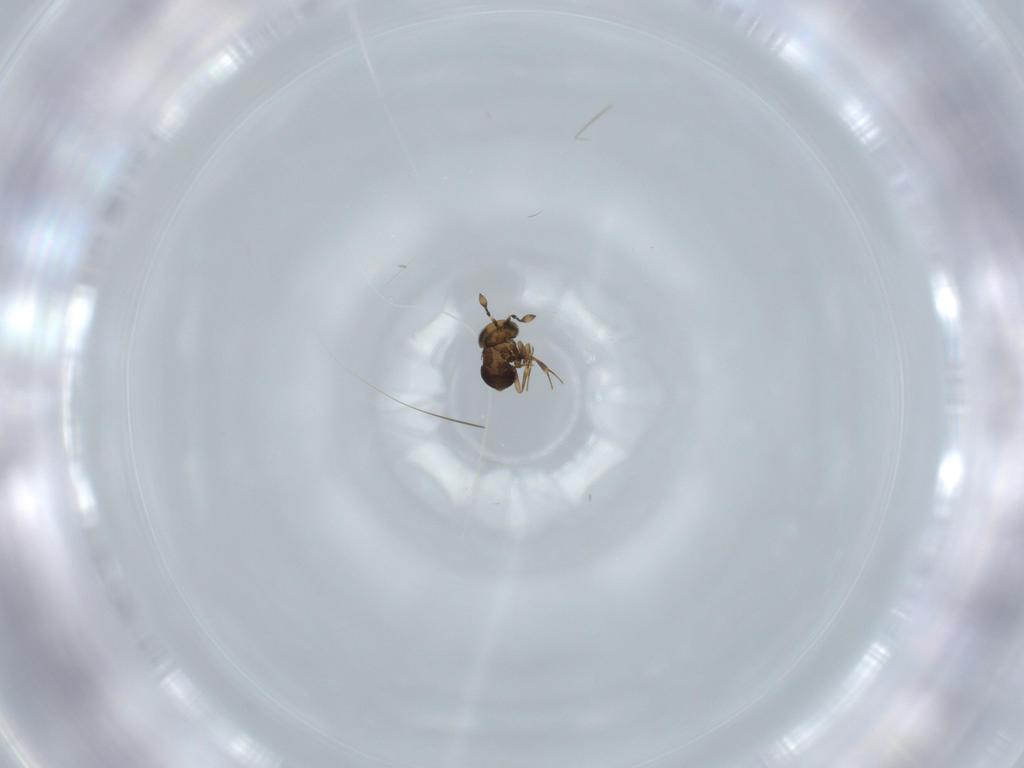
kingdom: Animalia
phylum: Arthropoda
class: Insecta
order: Hymenoptera
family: Scelionidae
